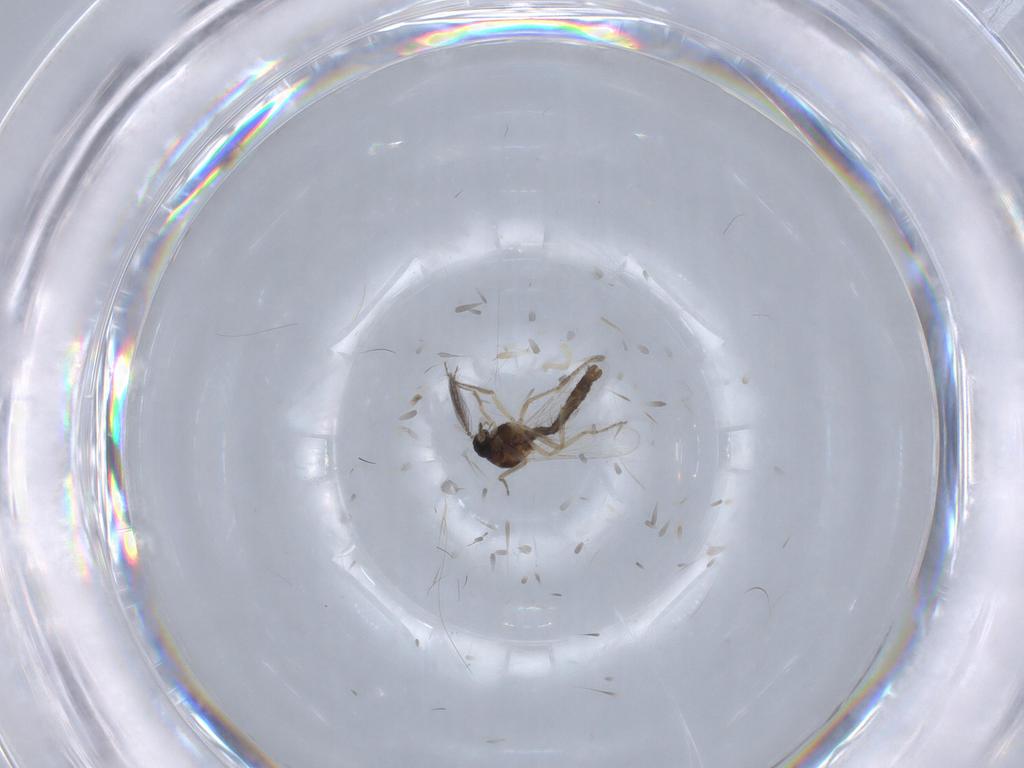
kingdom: Animalia
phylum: Arthropoda
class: Insecta
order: Diptera
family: Ceratopogonidae
